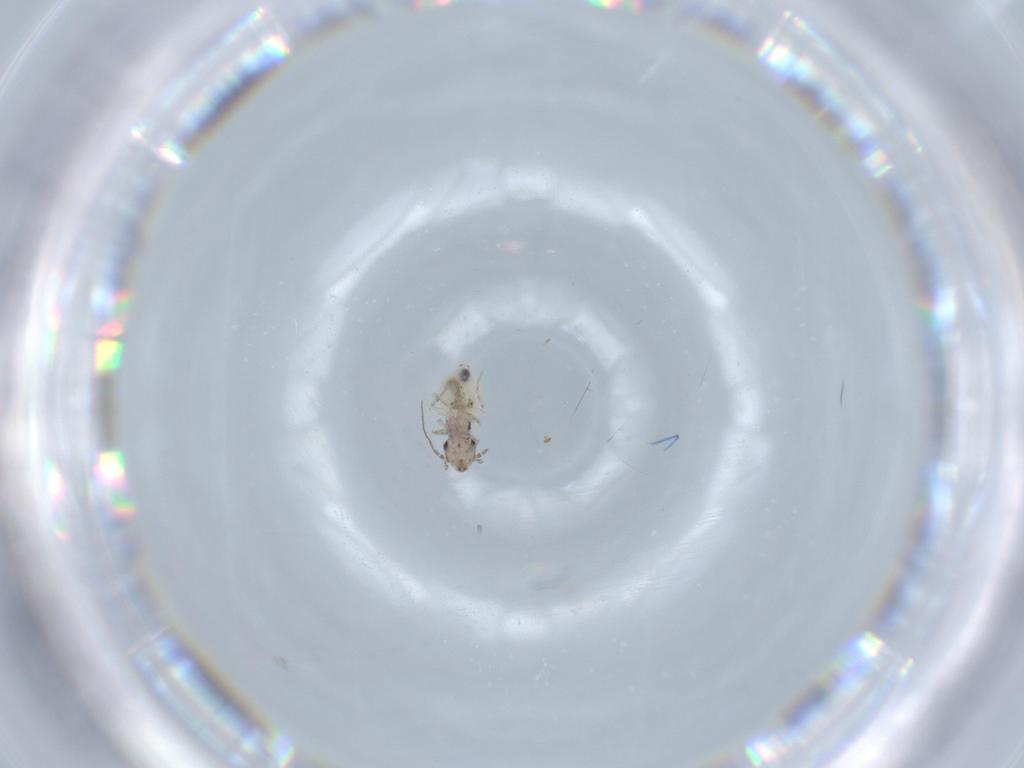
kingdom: Animalia
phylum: Arthropoda
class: Insecta
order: Psocodea
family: Lepidopsocidae
